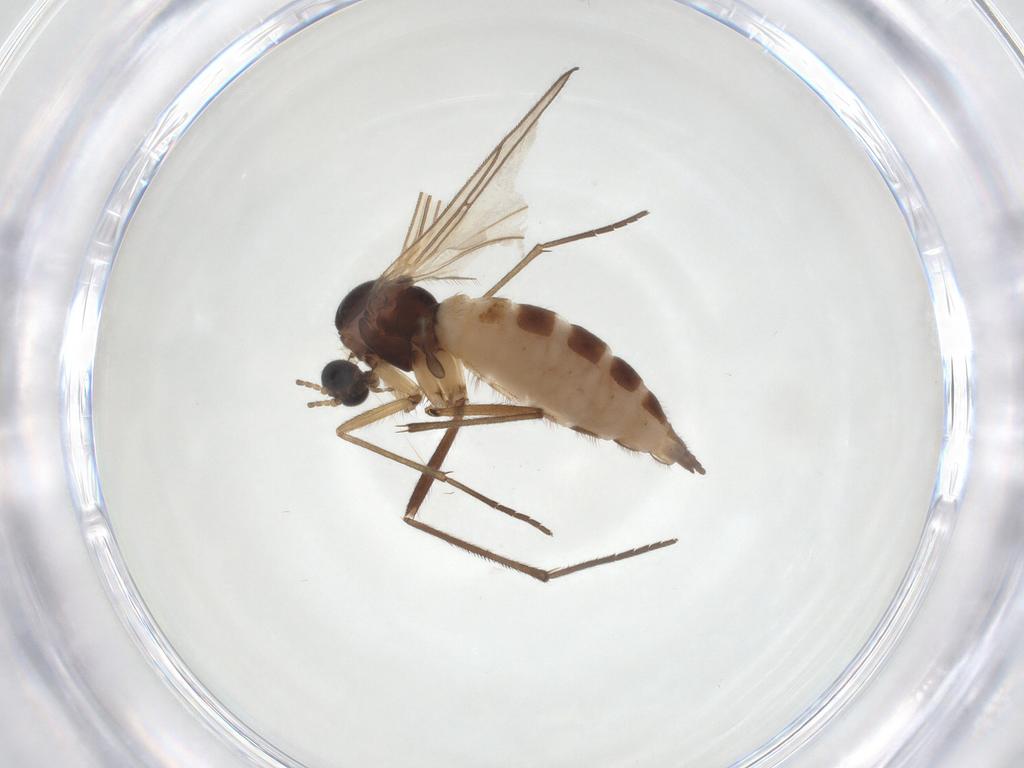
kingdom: Animalia
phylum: Arthropoda
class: Insecta
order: Diptera
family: Sciaridae
